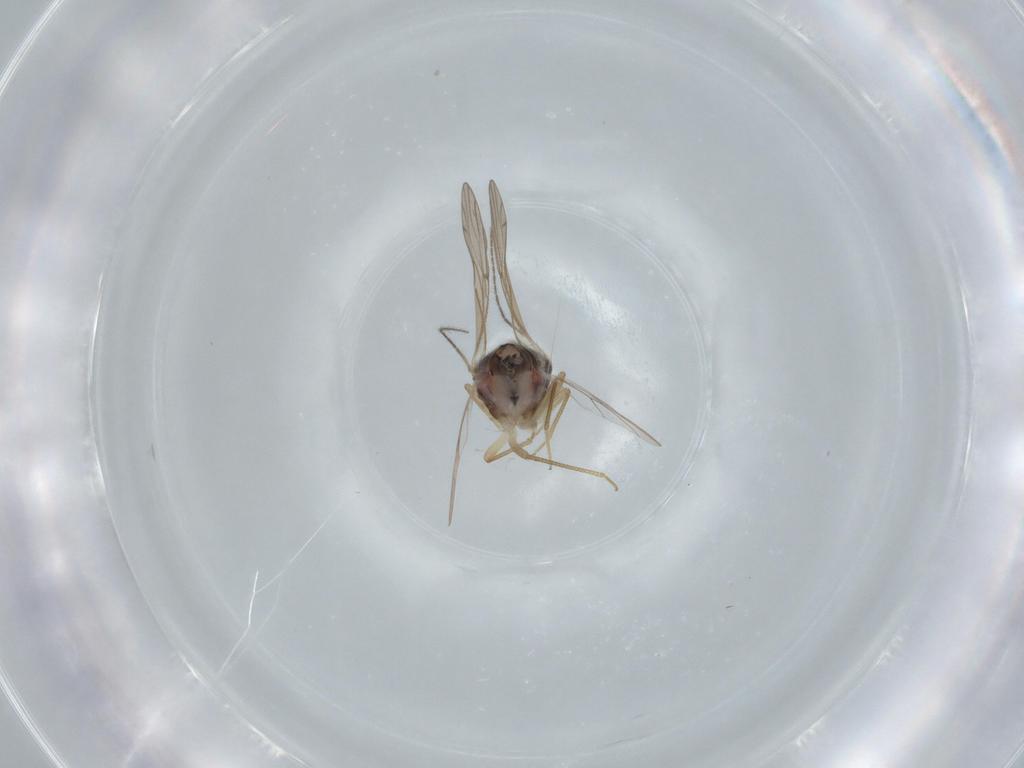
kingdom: Animalia
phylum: Arthropoda
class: Insecta
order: Psocodea
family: Ectopsocidae
